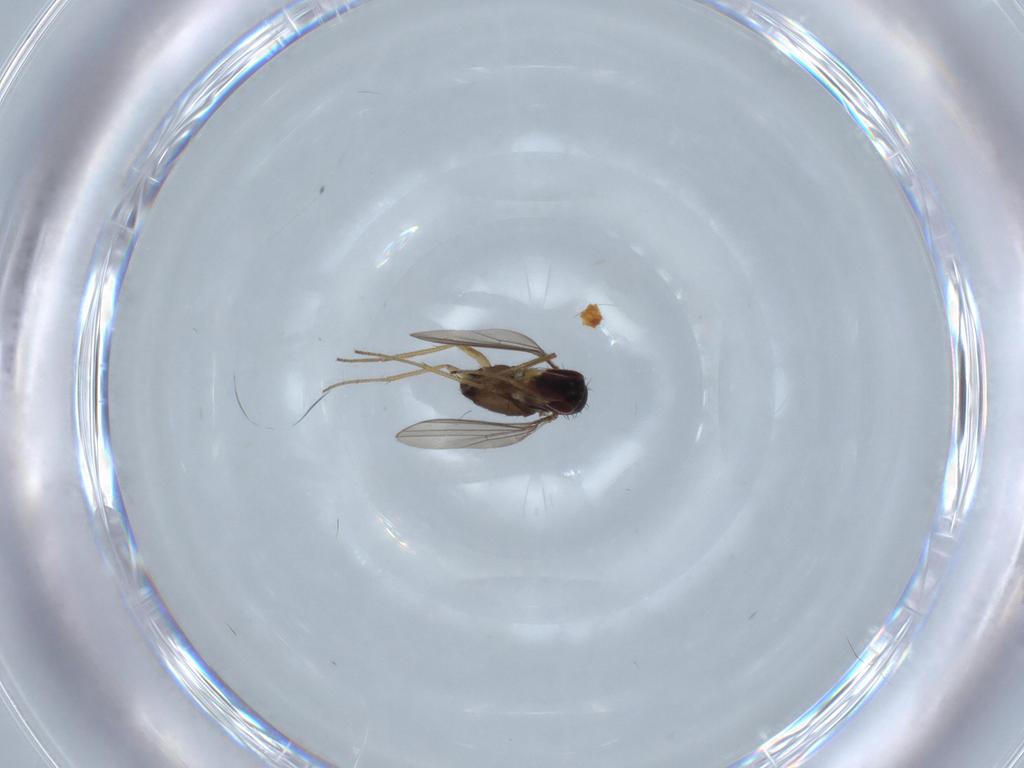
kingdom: Animalia
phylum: Arthropoda
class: Insecta
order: Diptera
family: Dolichopodidae
